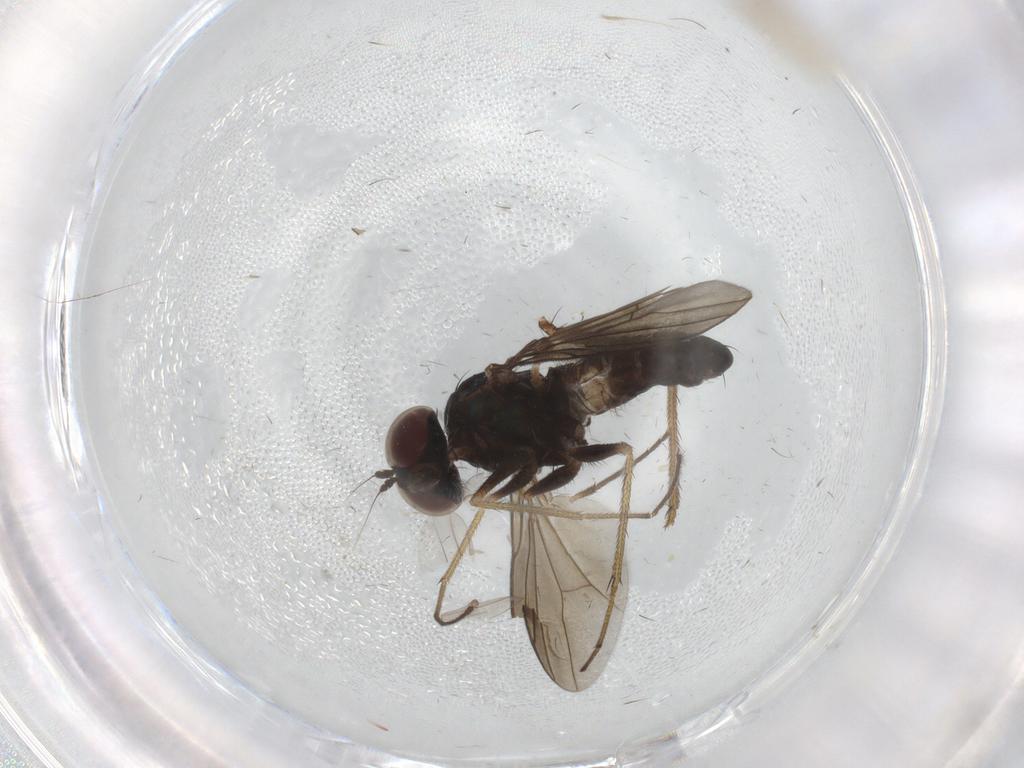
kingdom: Animalia
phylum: Arthropoda
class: Insecta
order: Diptera
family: Dolichopodidae
